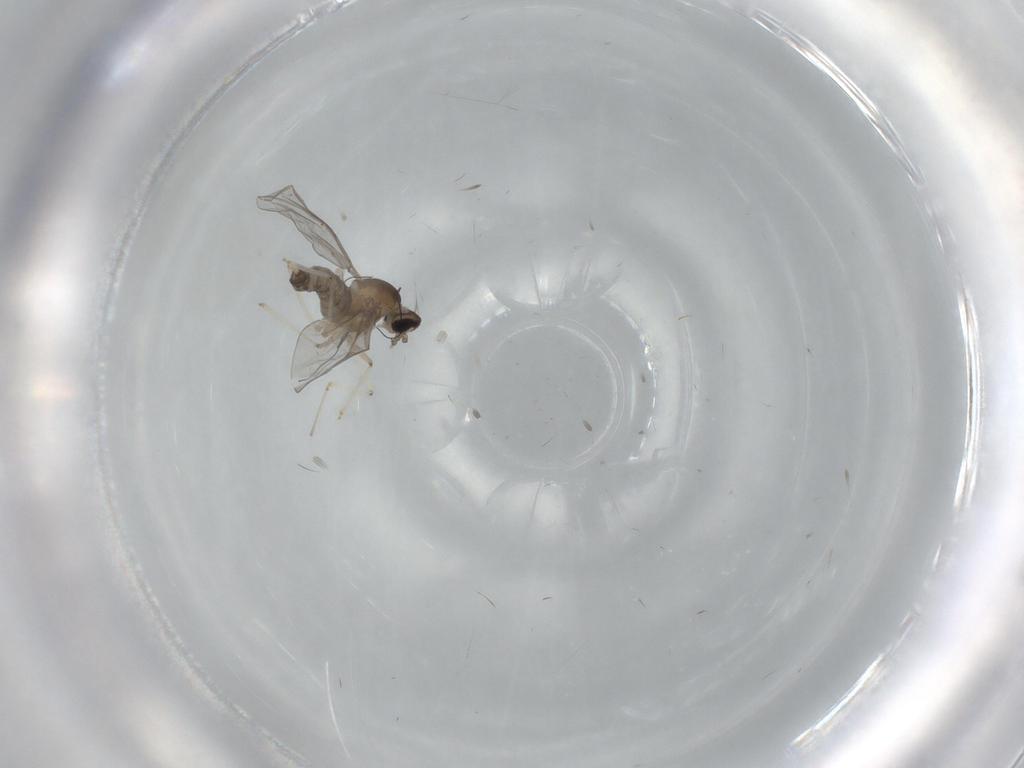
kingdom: Animalia
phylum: Arthropoda
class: Insecta
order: Diptera
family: Cecidomyiidae
